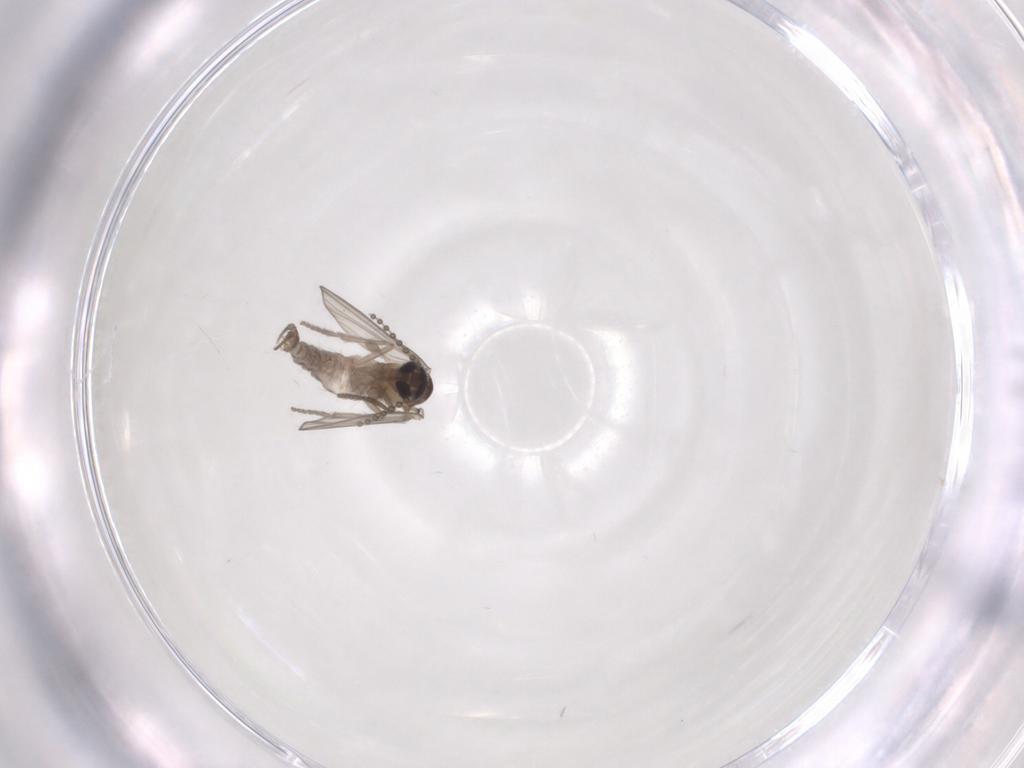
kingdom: Animalia
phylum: Arthropoda
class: Insecta
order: Diptera
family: Psychodidae
